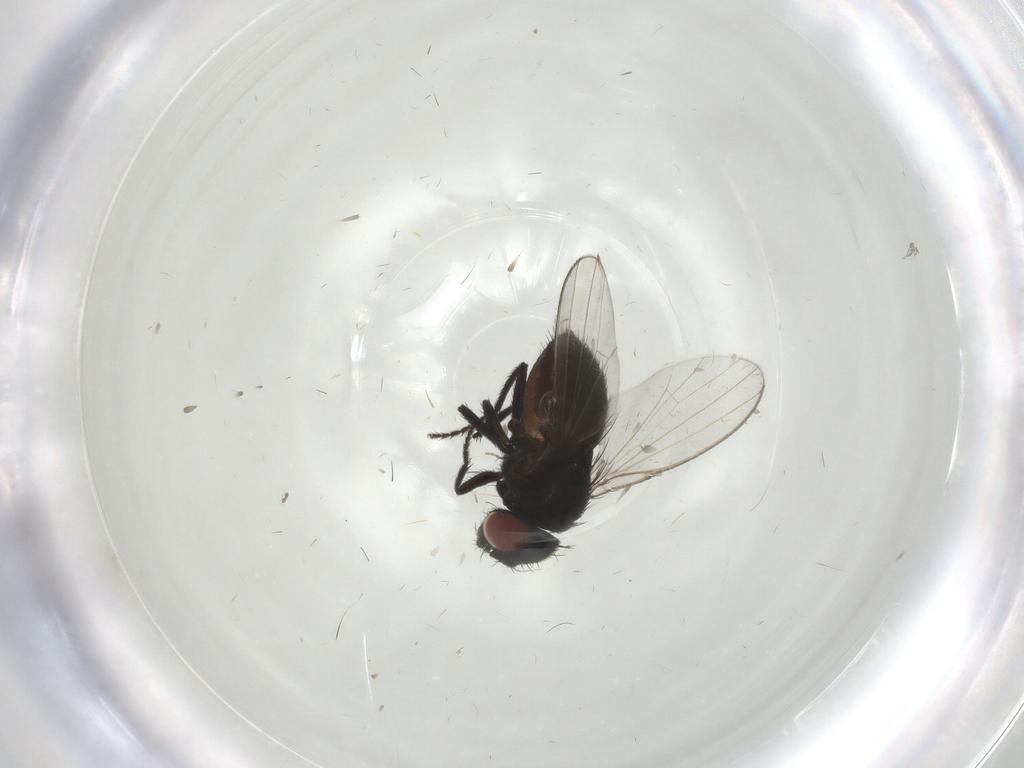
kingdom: Animalia
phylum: Arthropoda
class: Insecta
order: Diptera
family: Milichiidae
